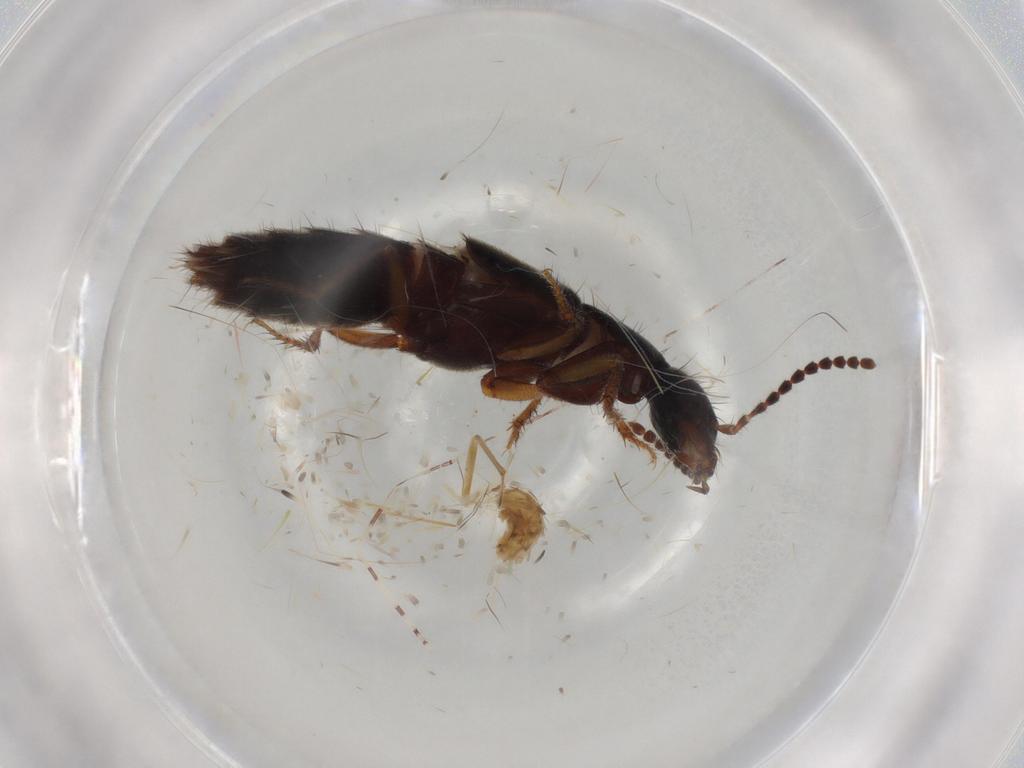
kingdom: Animalia
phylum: Arthropoda
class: Insecta
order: Coleoptera
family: Staphylinidae
